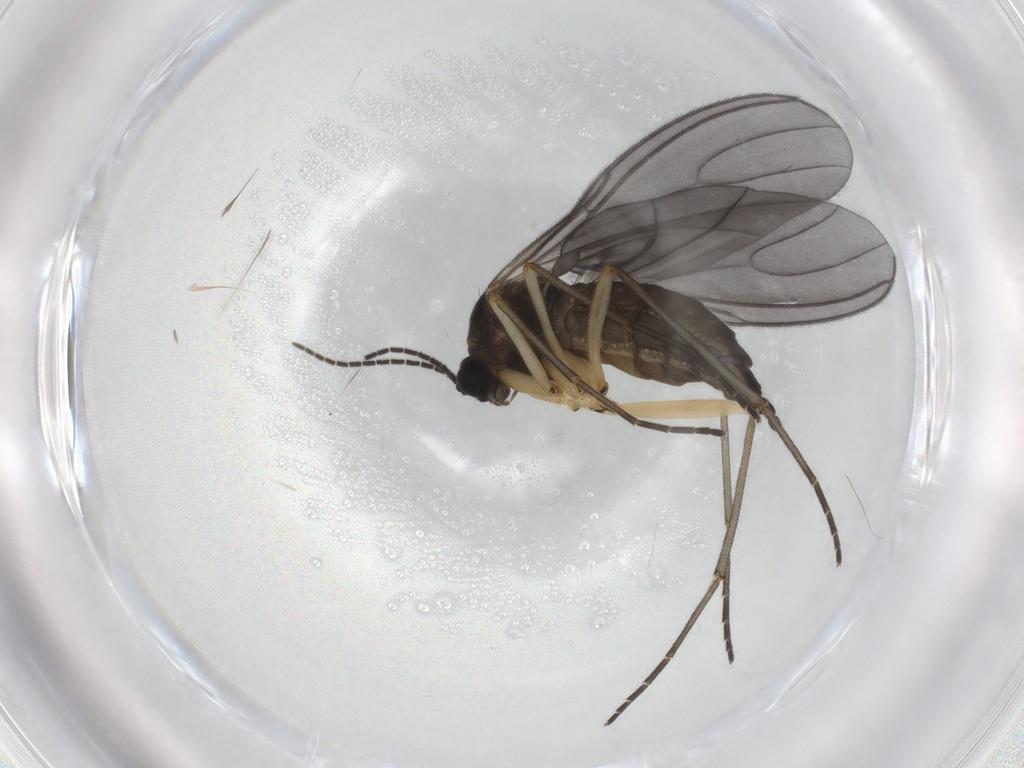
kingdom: Animalia
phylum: Arthropoda
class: Insecta
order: Diptera
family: Sciaridae
